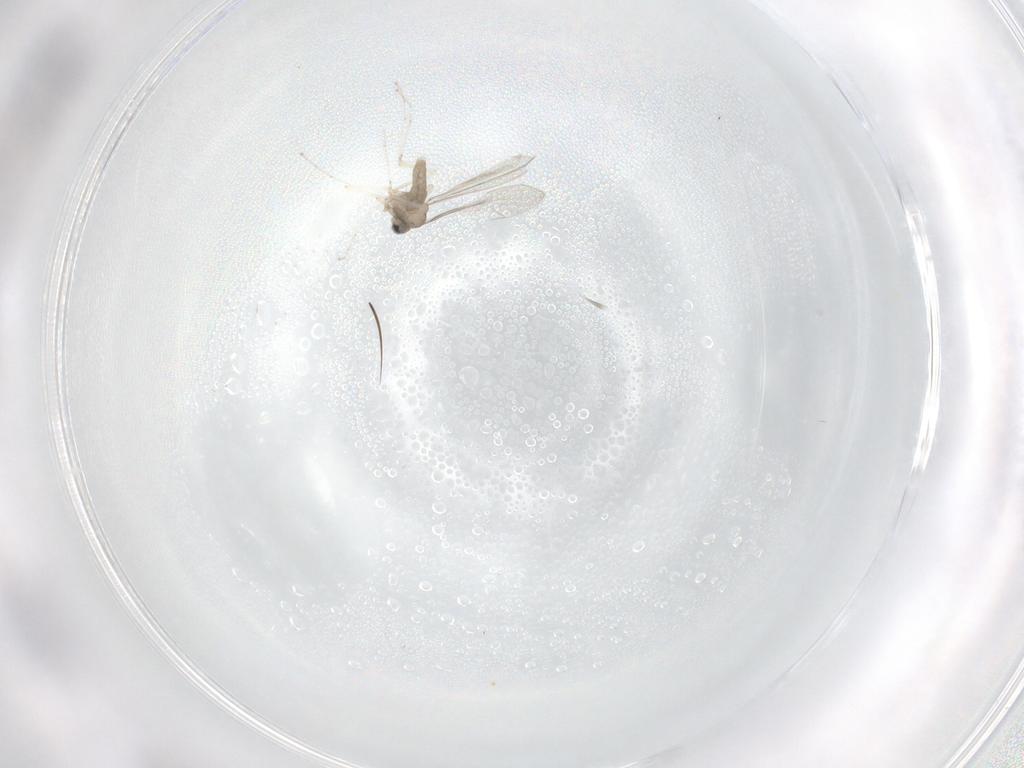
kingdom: Animalia
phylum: Arthropoda
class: Insecta
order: Diptera
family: Cecidomyiidae
